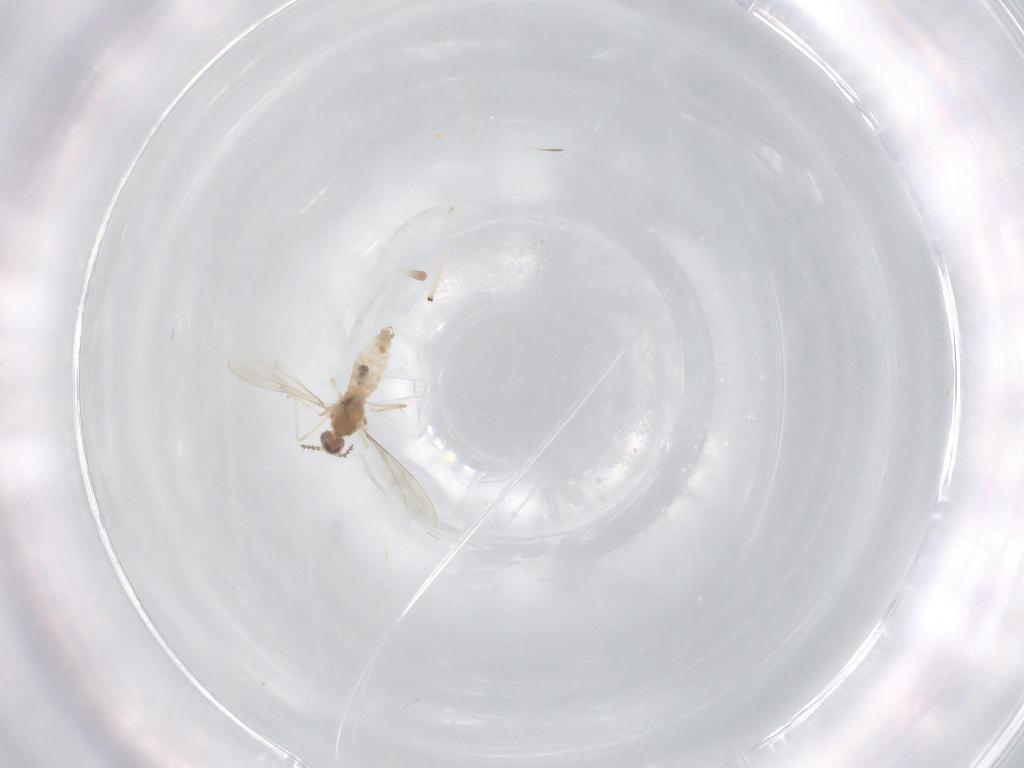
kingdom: Animalia
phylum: Arthropoda
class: Insecta
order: Diptera
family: Cecidomyiidae
